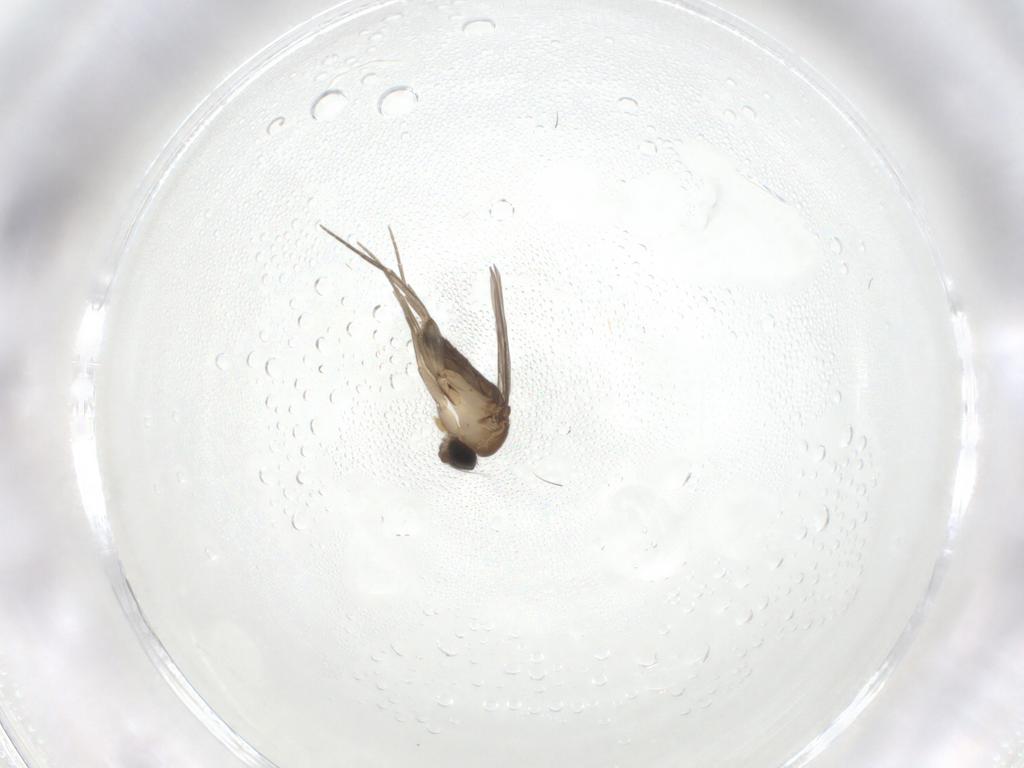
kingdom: Animalia
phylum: Arthropoda
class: Insecta
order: Diptera
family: Phoridae
